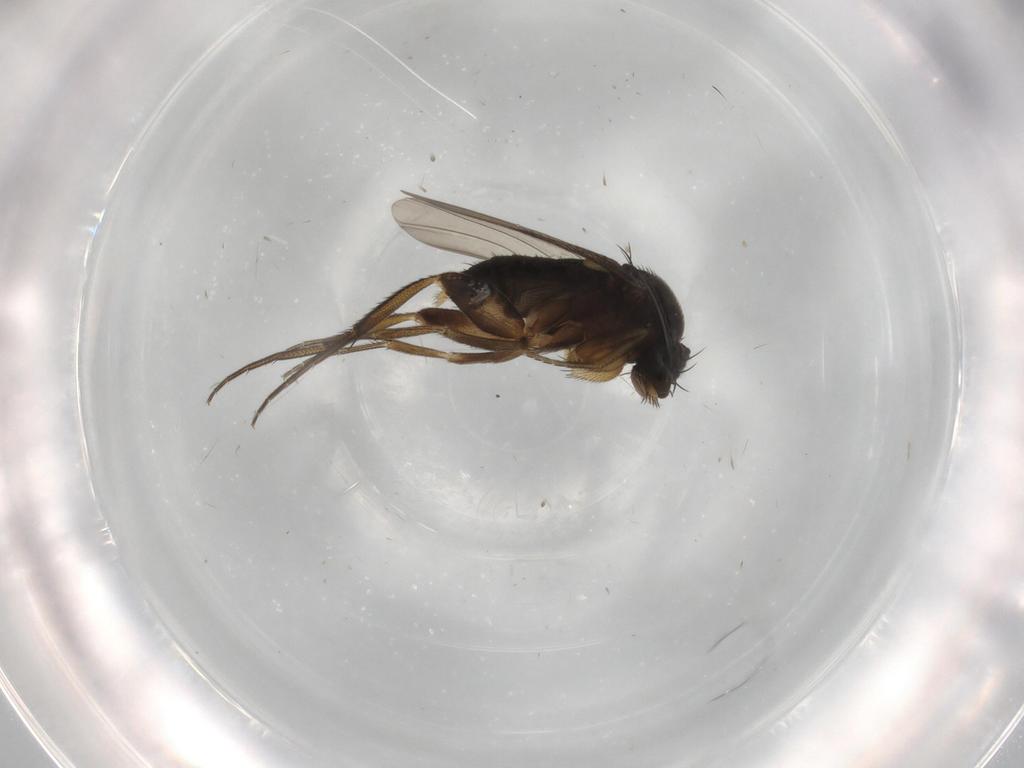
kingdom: Animalia
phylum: Arthropoda
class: Insecta
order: Diptera
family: Phoridae
